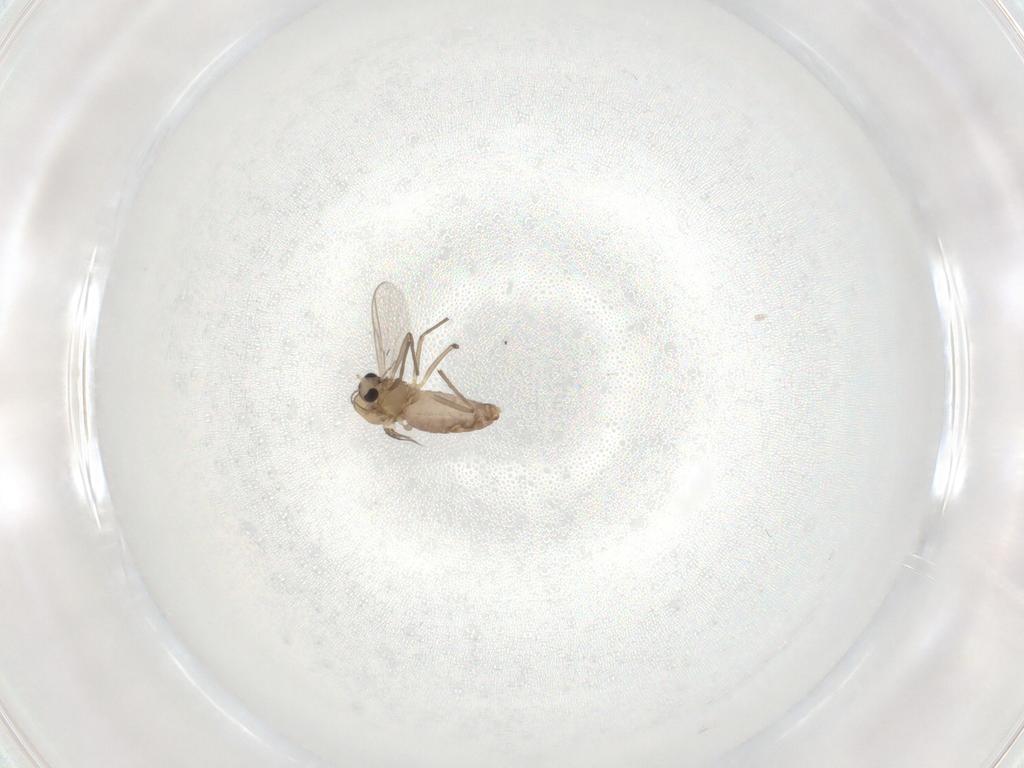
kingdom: Animalia
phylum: Arthropoda
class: Insecta
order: Diptera
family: Chironomidae
